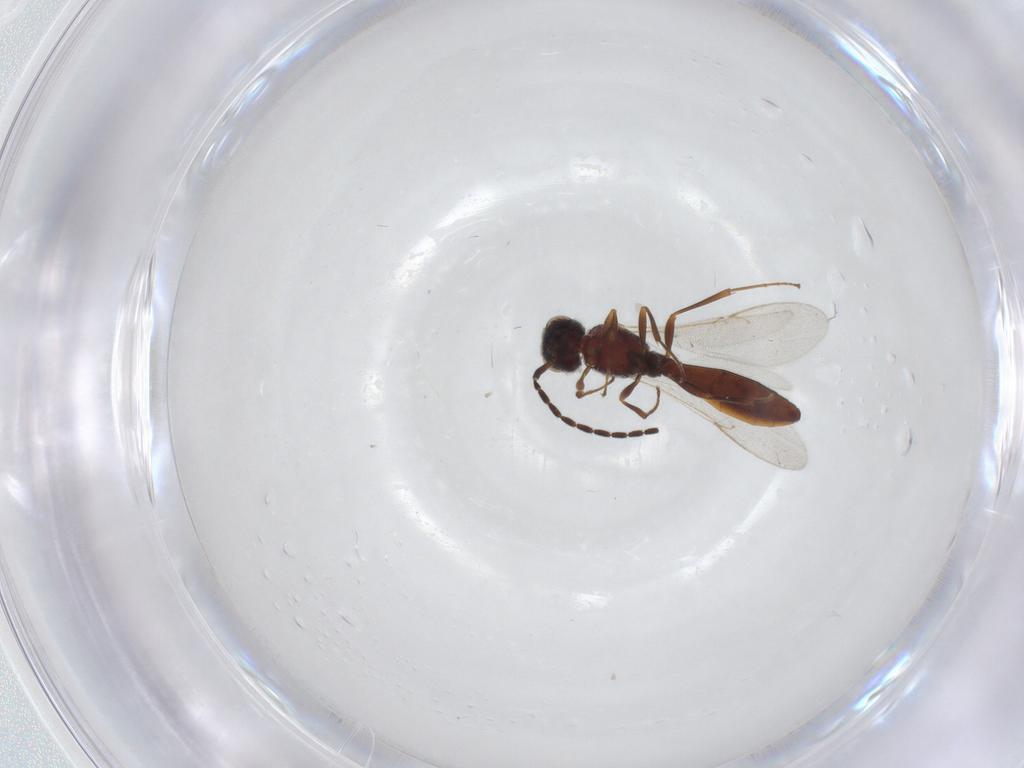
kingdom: Animalia
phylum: Arthropoda
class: Insecta
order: Hymenoptera
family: Scelionidae
